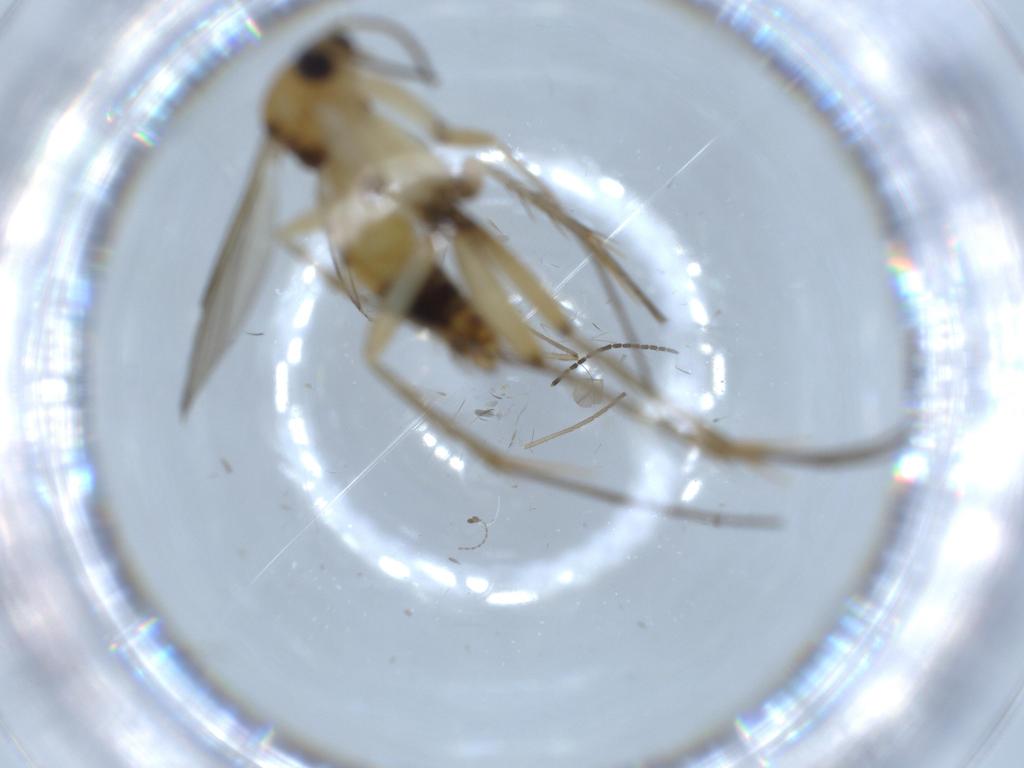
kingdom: Animalia
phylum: Arthropoda
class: Insecta
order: Diptera
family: Mycetophilidae
